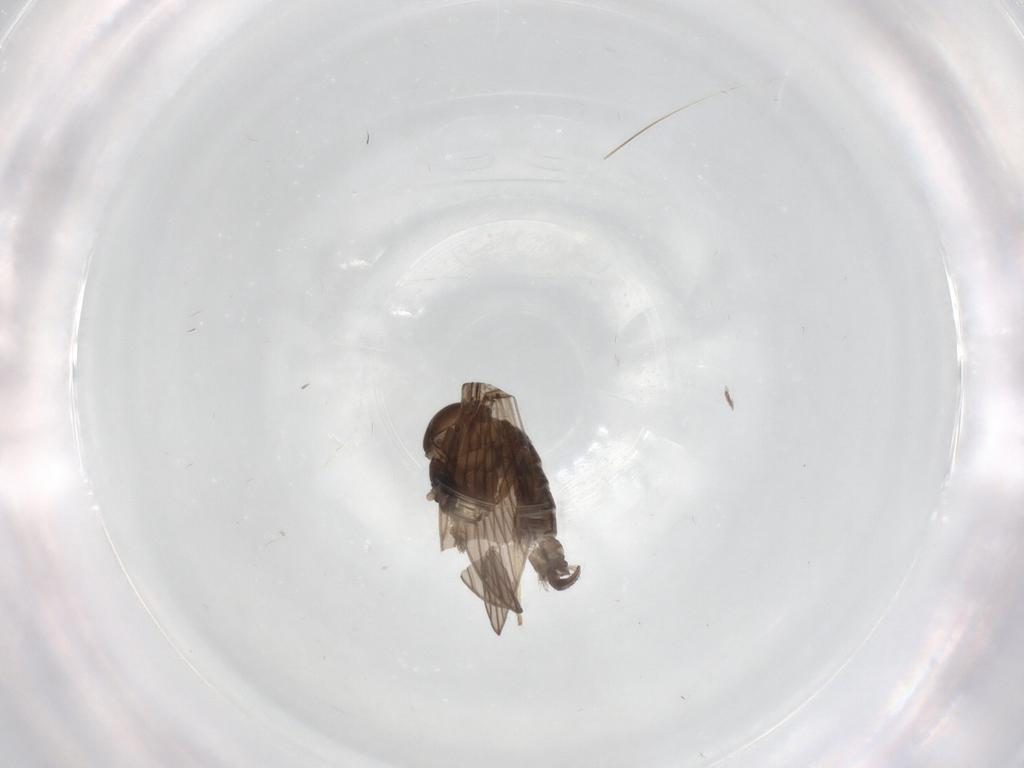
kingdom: Animalia
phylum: Arthropoda
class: Insecta
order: Diptera
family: Psychodidae
